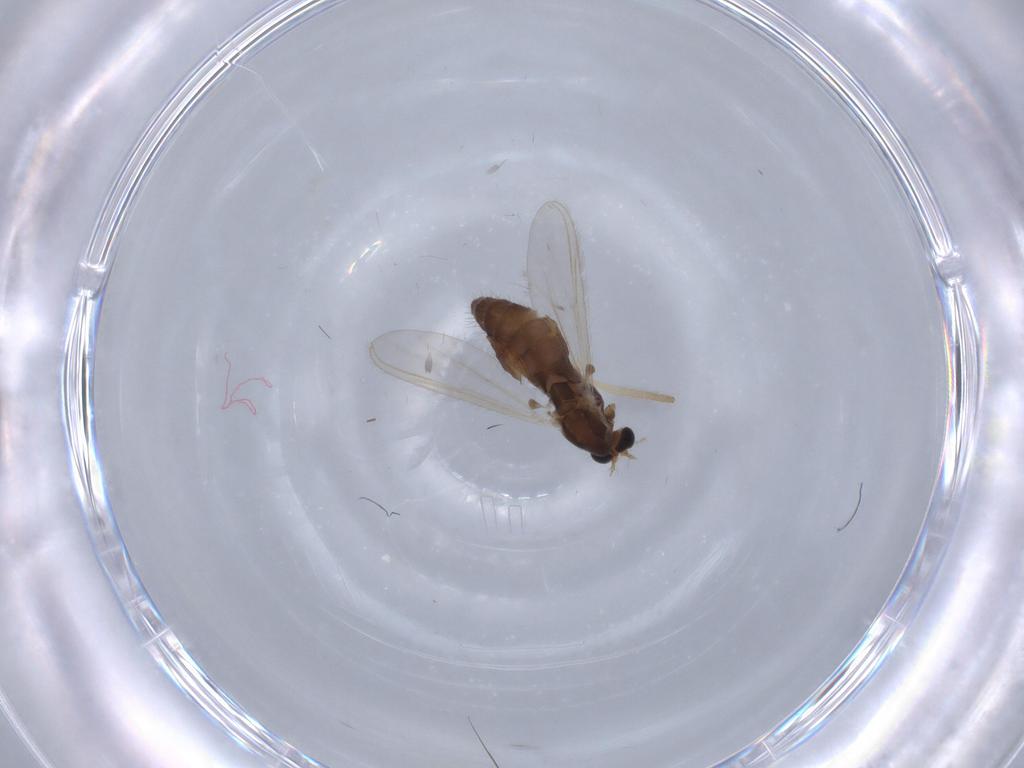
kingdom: Animalia
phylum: Arthropoda
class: Insecta
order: Diptera
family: Chironomidae
